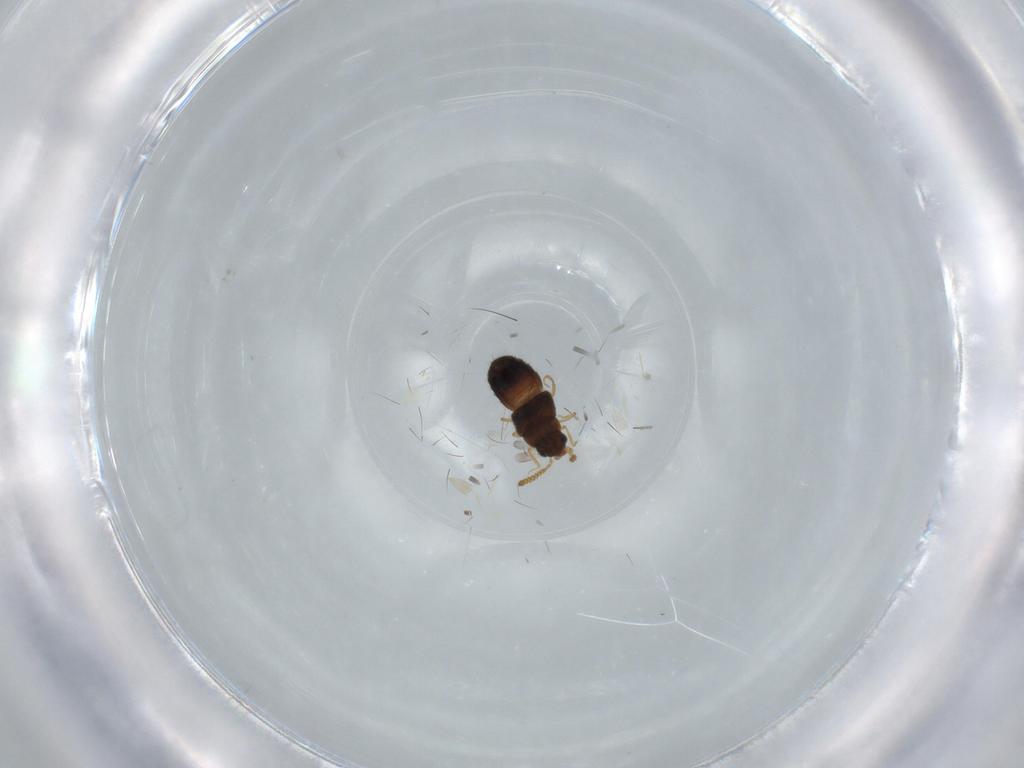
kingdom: Animalia
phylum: Arthropoda
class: Insecta
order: Coleoptera
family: Staphylinidae
